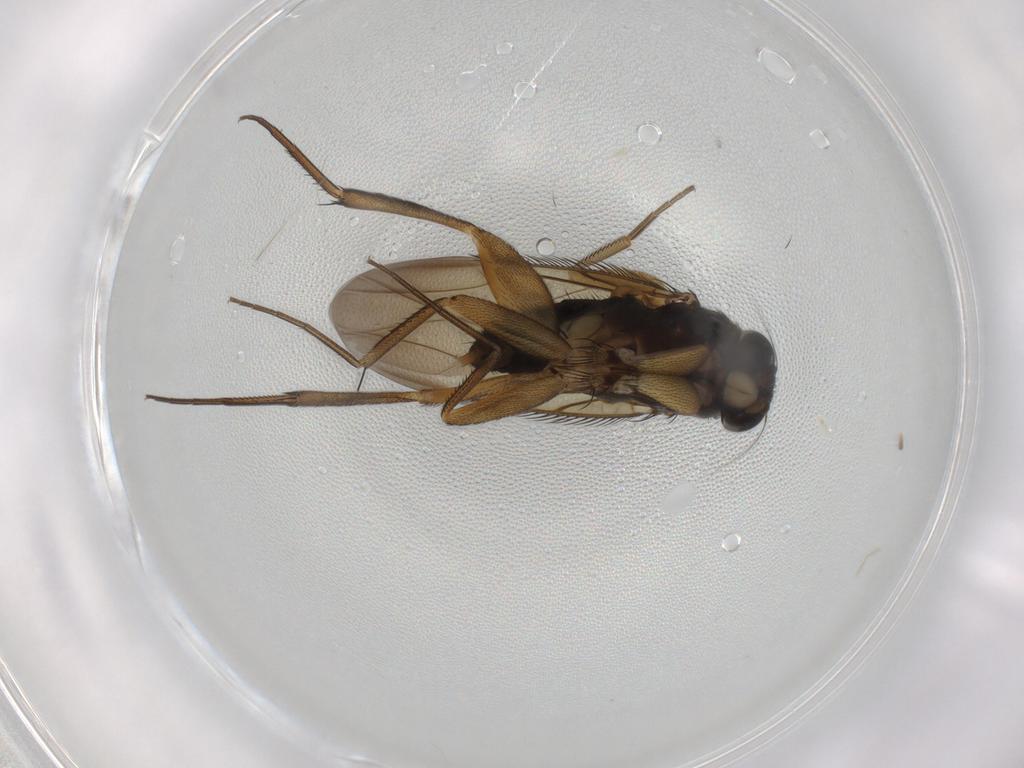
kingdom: Animalia
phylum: Arthropoda
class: Insecta
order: Diptera
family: Phoridae
